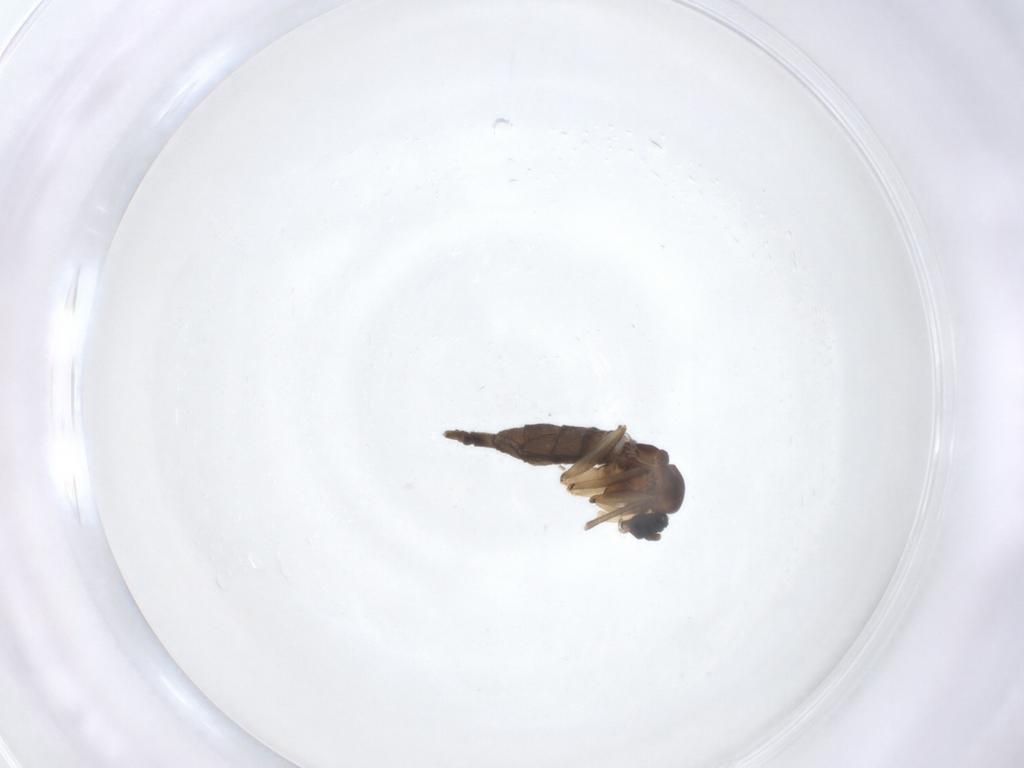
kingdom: Animalia
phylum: Arthropoda
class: Insecta
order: Diptera
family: Sciaridae
